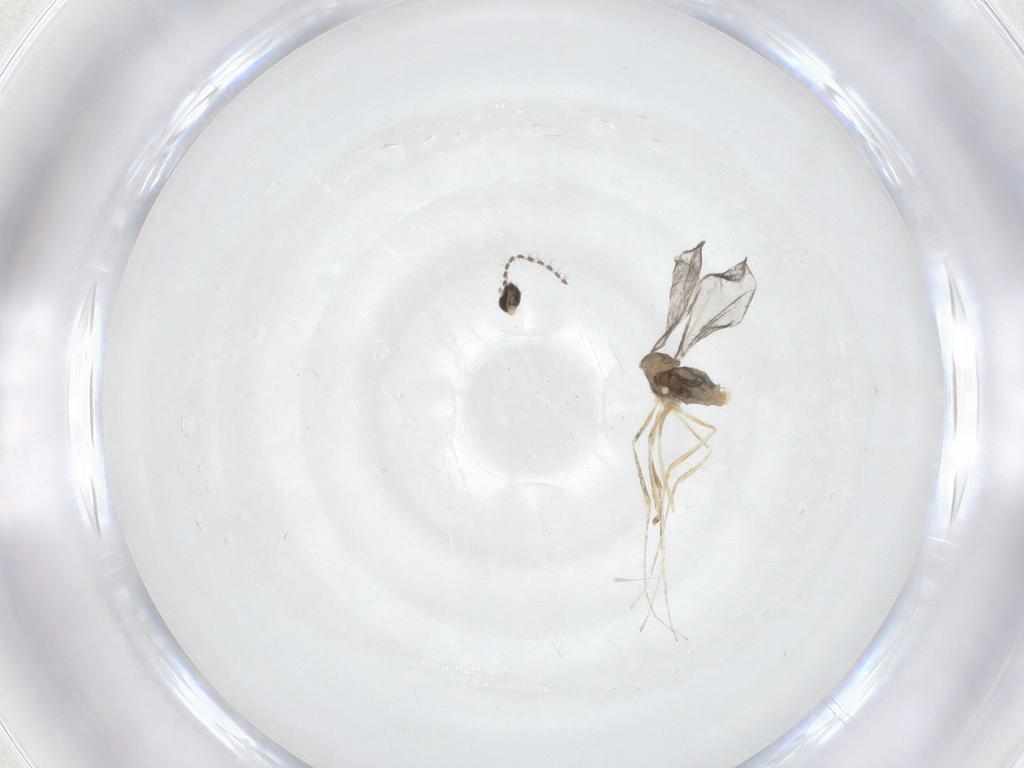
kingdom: Animalia
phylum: Arthropoda
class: Insecta
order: Diptera
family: Cecidomyiidae
